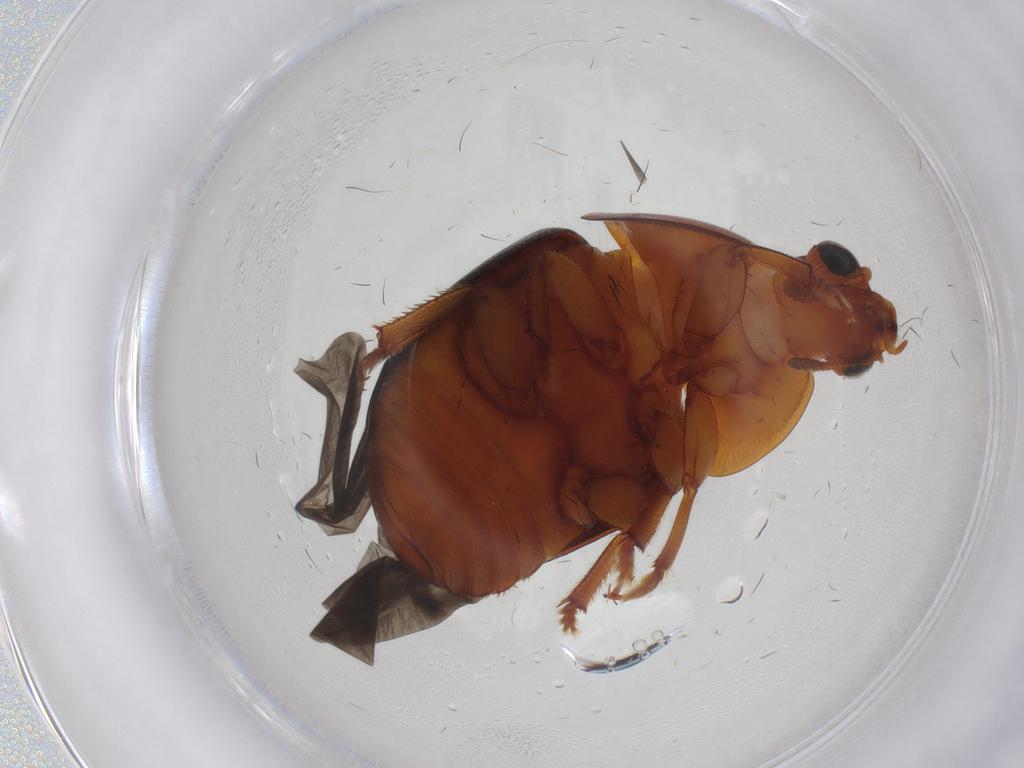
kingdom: Animalia
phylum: Arthropoda
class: Insecta
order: Coleoptera
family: Nitidulidae
